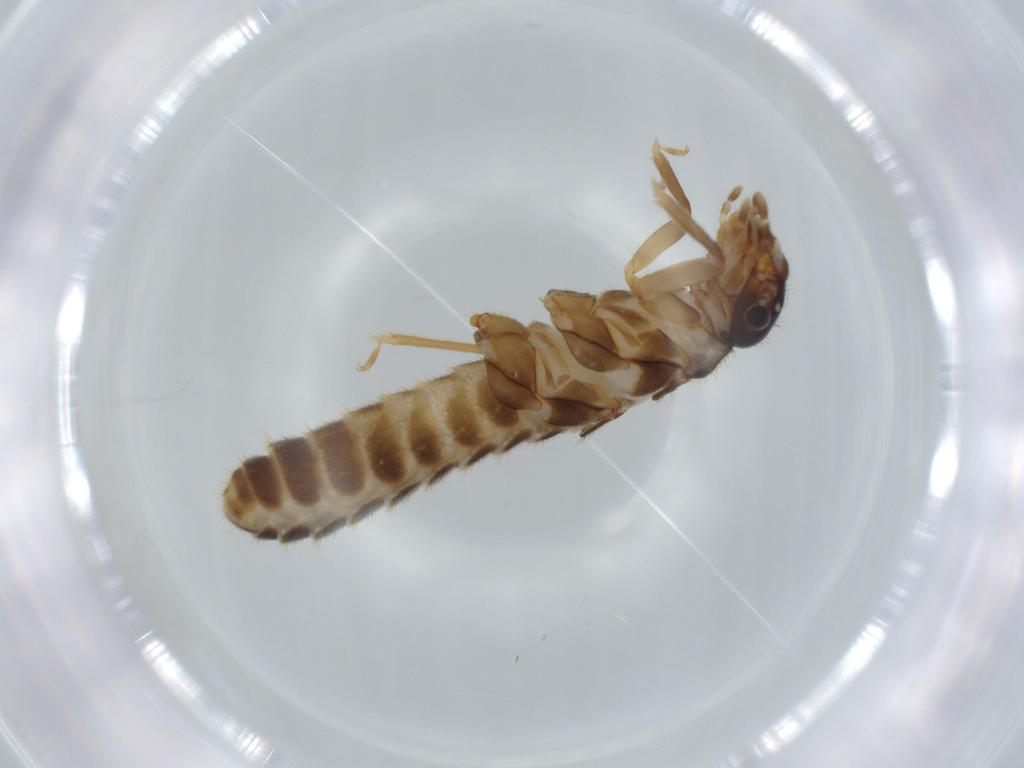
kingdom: Animalia
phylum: Arthropoda
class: Insecta
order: Blattodea
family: Termitidae
